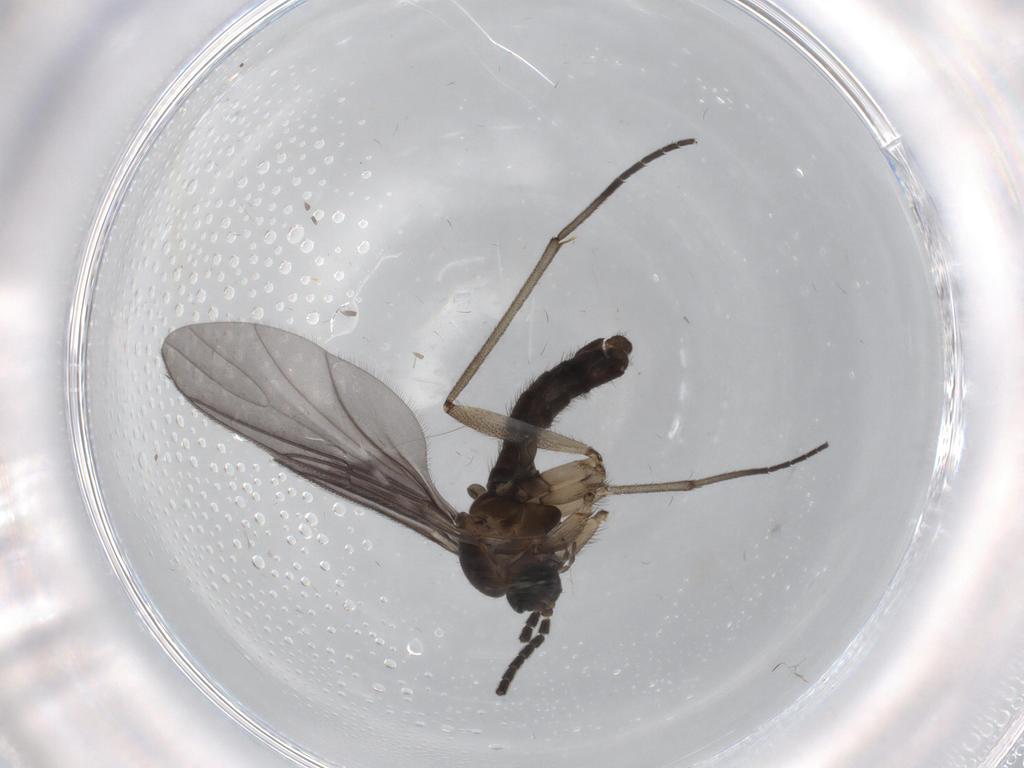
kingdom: Animalia
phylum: Arthropoda
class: Insecta
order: Diptera
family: Sciaridae
